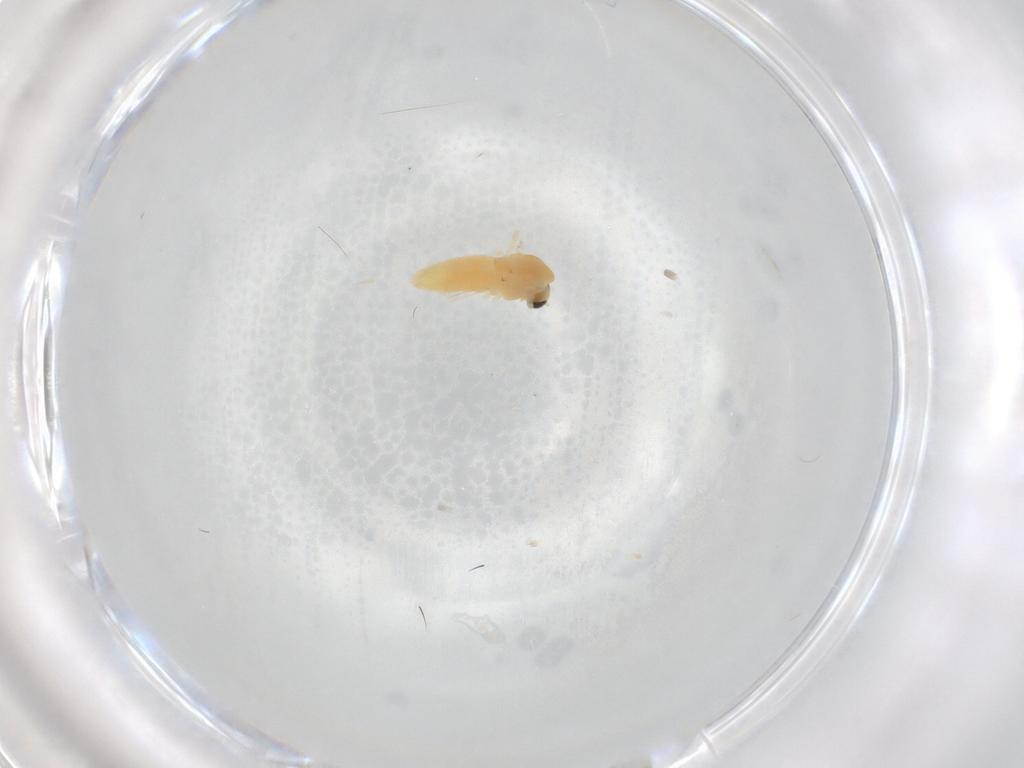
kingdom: Animalia
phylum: Arthropoda
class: Insecta
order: Diptera
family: Chironomidae
